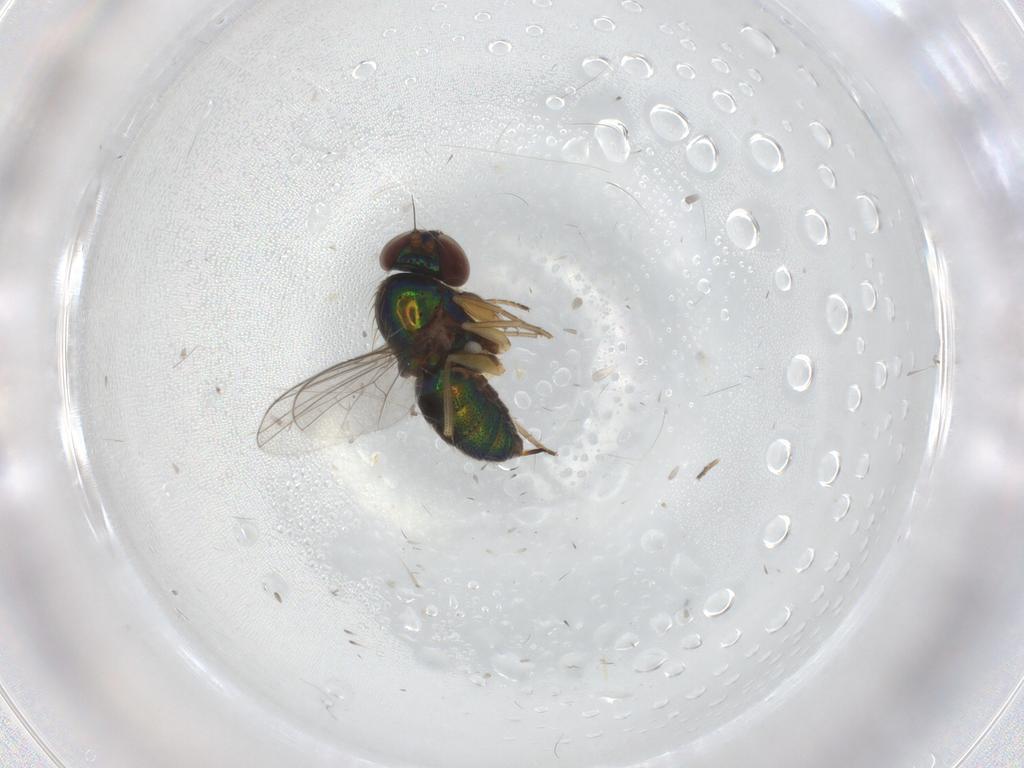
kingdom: Animalia
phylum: Arthropoda
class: Insecta
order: Diptera
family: Dolichopodidae
